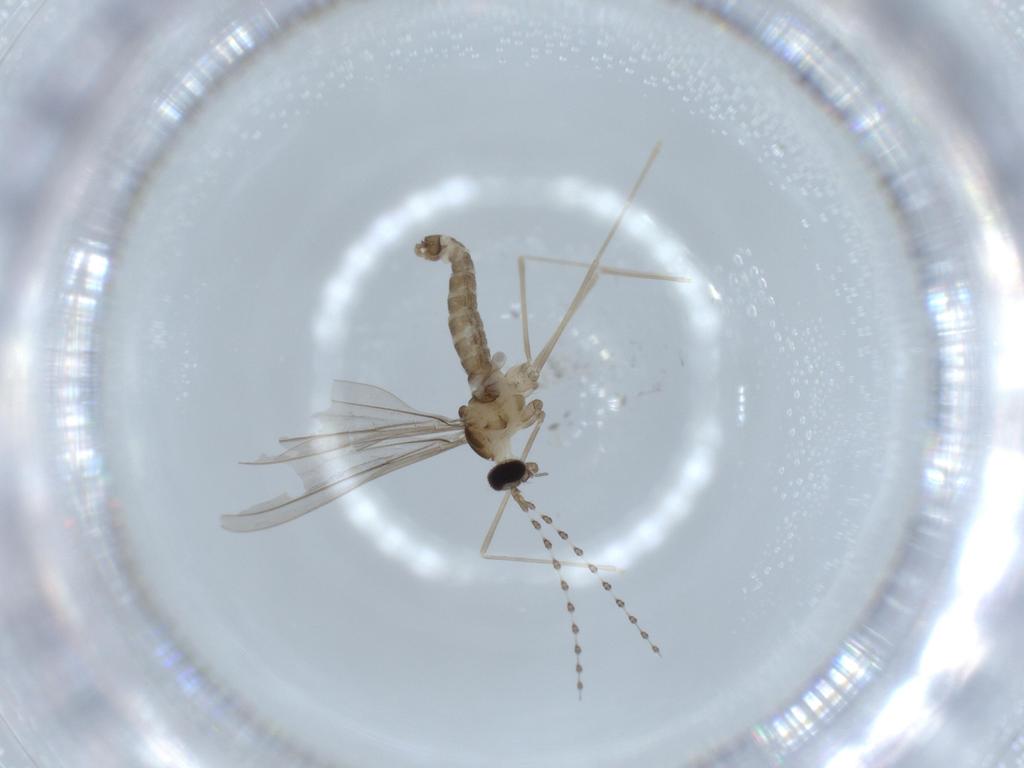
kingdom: Animalia
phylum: Arthropoda
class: Insecta
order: Diptera
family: Cecidomyiidae
